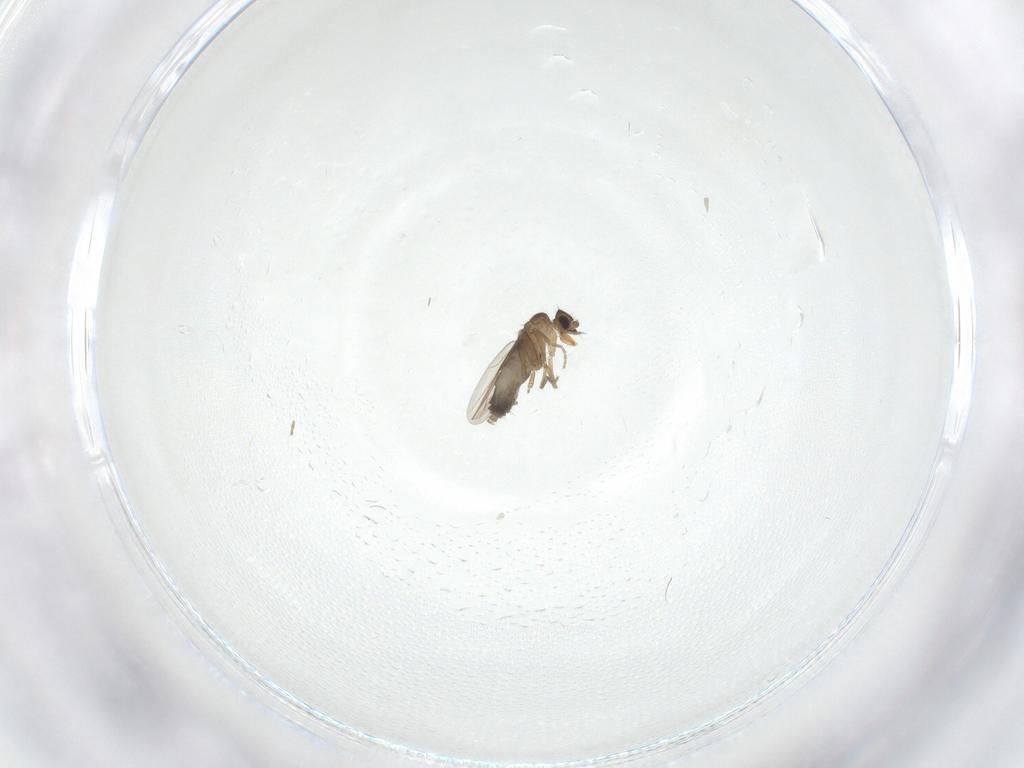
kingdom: Animalia
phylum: Arthropoda
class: Insecta
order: Diptera
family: Phoridae
